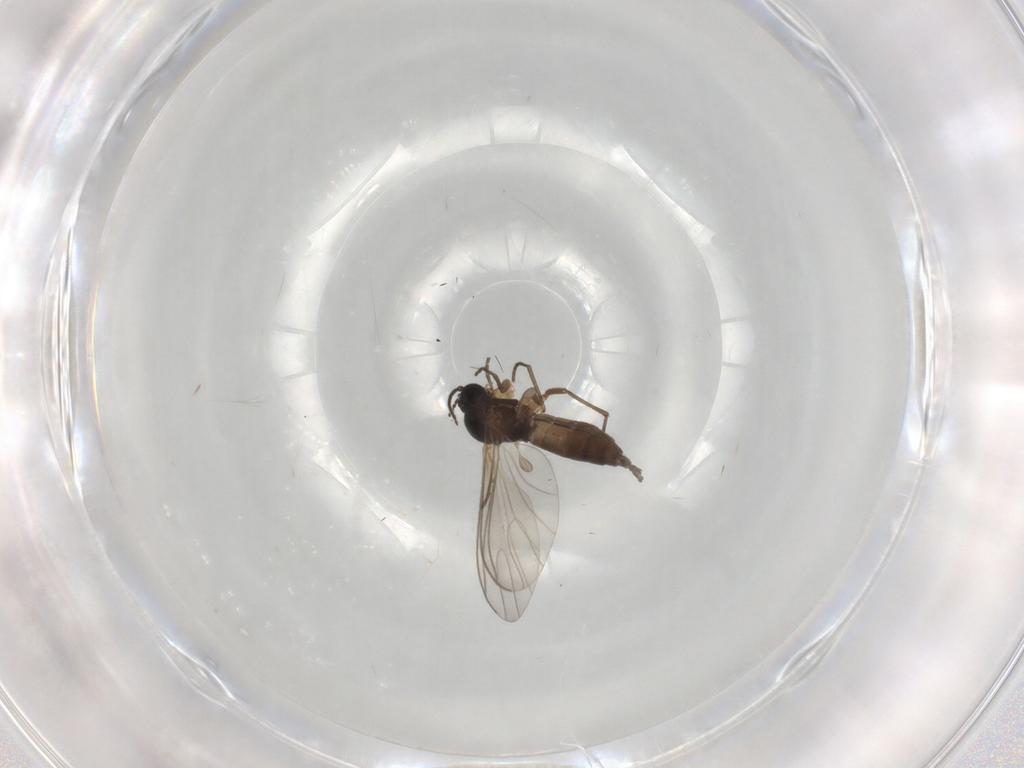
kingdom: Animalia
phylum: Arthropoda
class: Insecta
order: Diptera
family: Sciaridae
